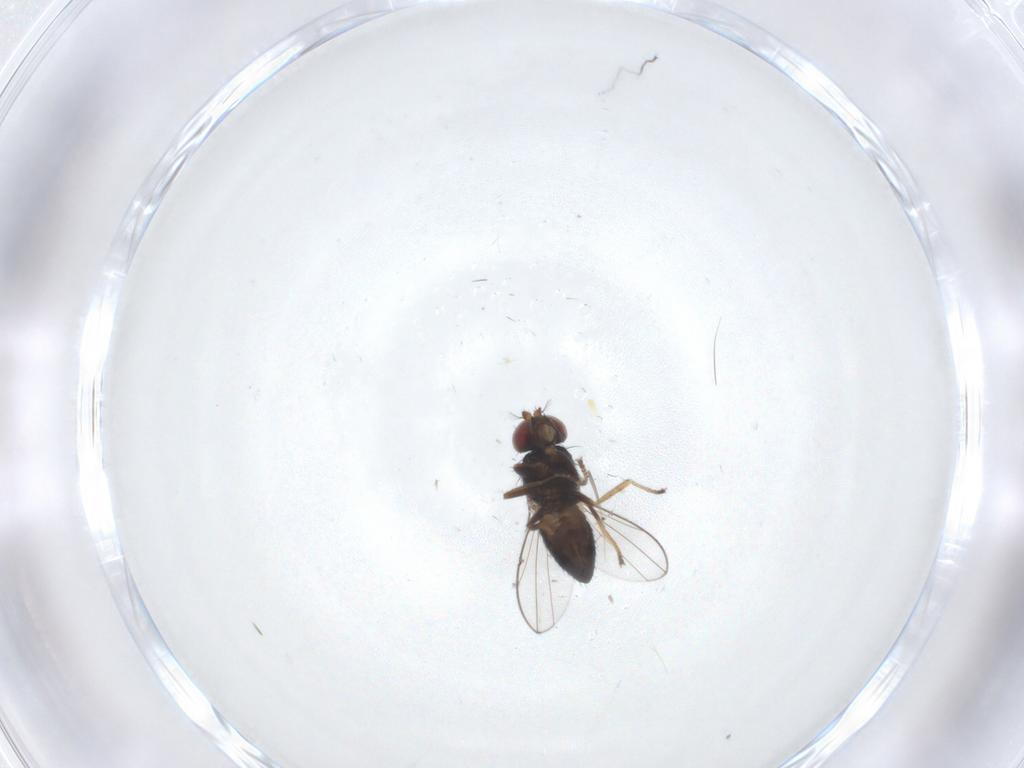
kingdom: Animalia
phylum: Arthropoda
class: Insecta
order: Diptera
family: Ephydridae
